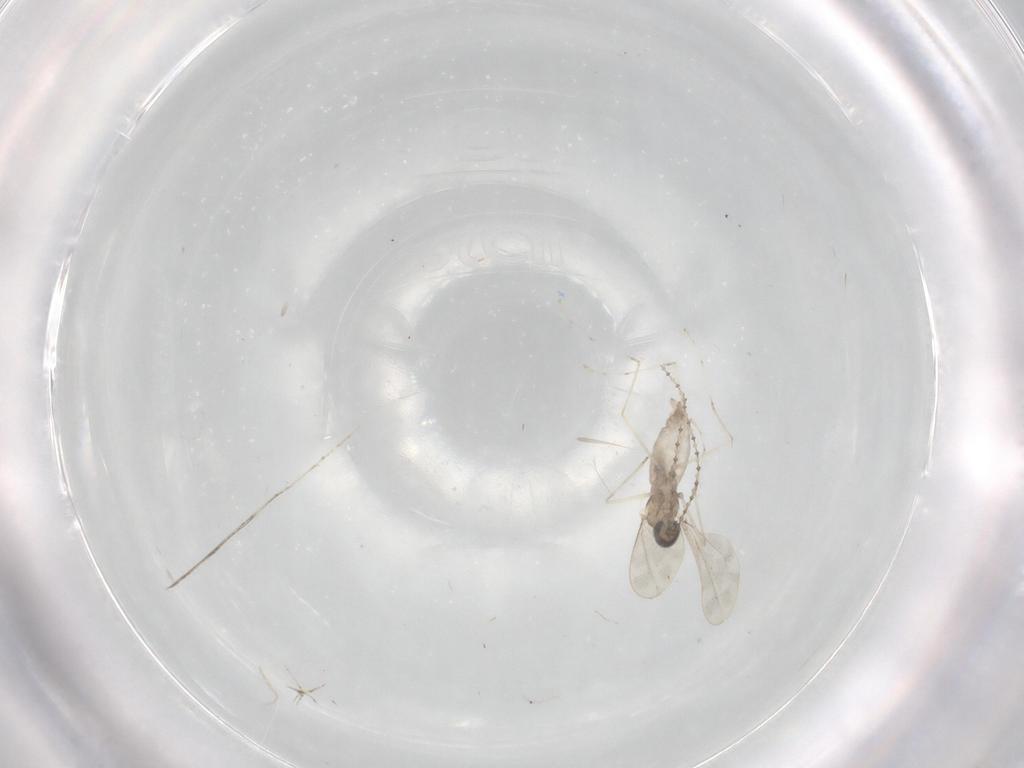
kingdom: Animalia
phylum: Arthropoda
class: Insecta
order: Diptera
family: Cecidomyiidae
